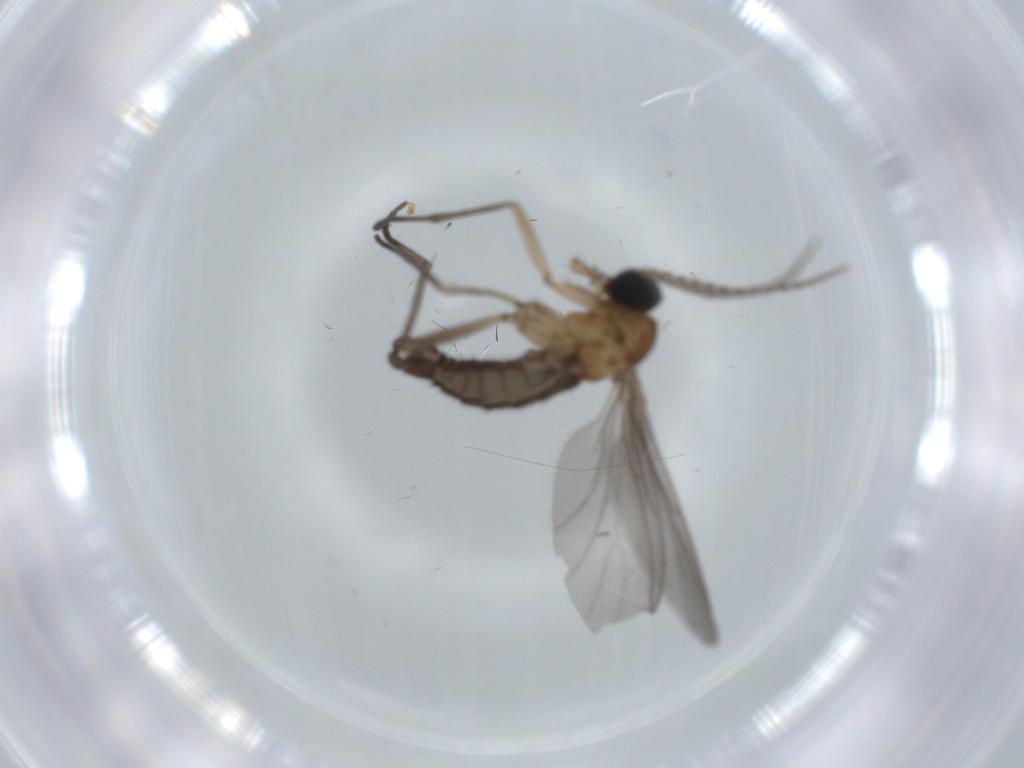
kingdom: Animalia
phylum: Arthropoda
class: Insecta
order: Diptera
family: Sciaridae
